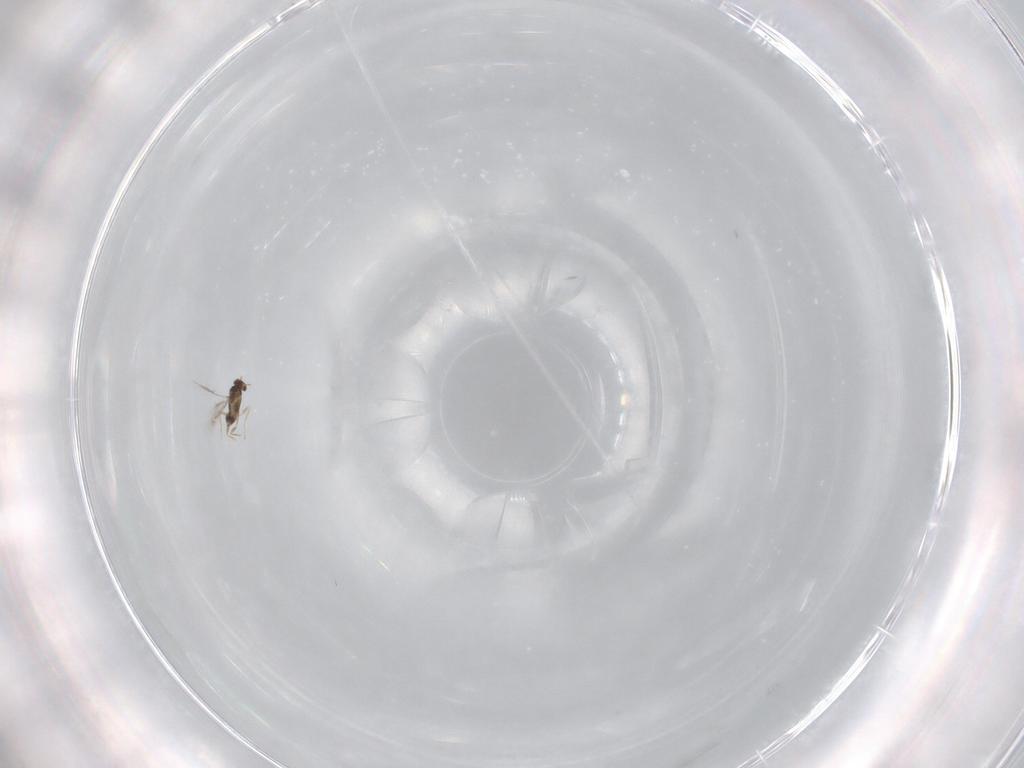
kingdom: Animalia
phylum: Arthropoda
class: Insecta
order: Hymenoptera
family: Mymaridae
